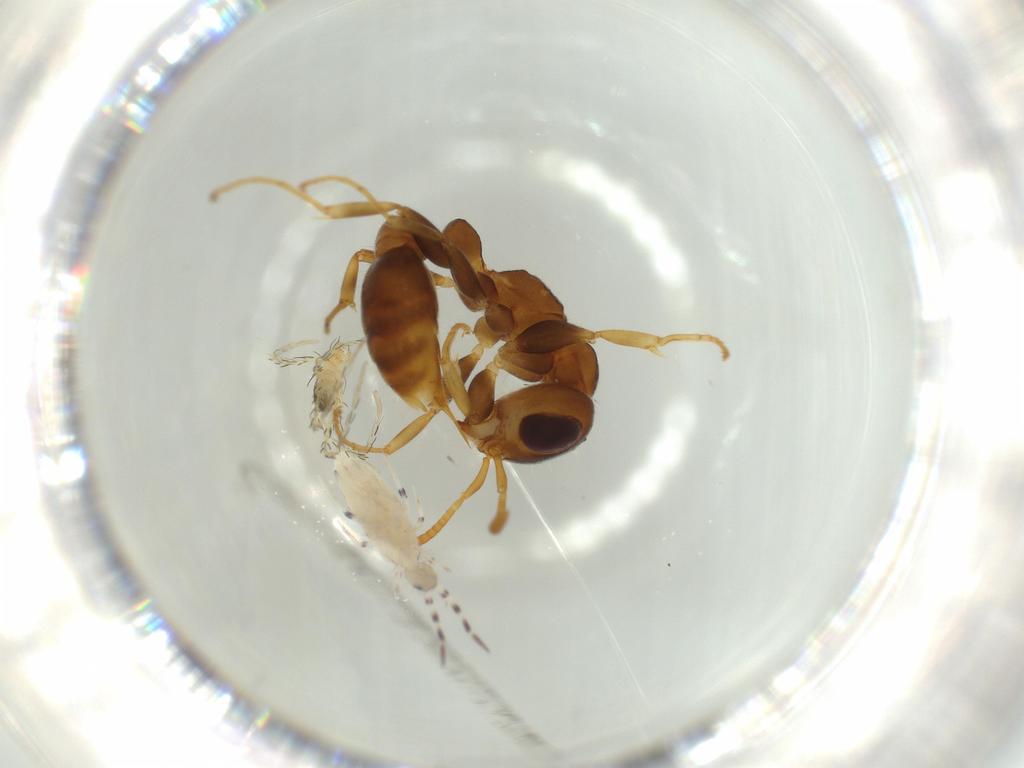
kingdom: Animalia
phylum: Arthropoda
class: Collembola
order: Entomobryomorpha
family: Entomobryidae
